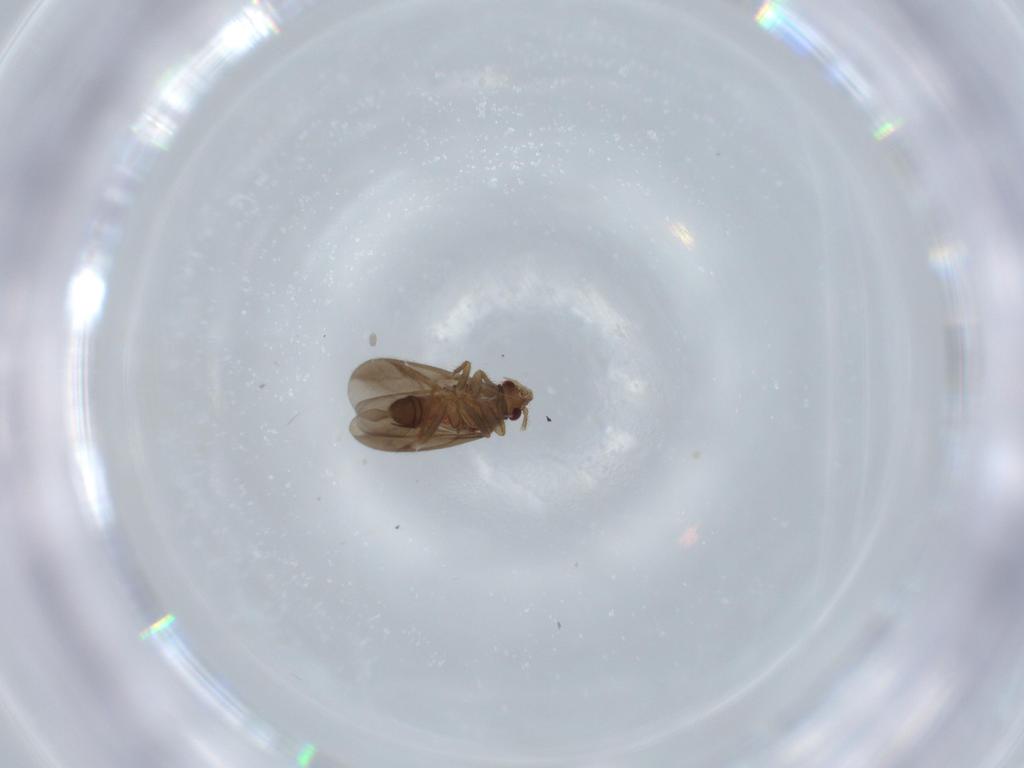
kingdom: Animalia
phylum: Arthropoda
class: Insecta
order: Hemiptera
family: Ceratocombidae
